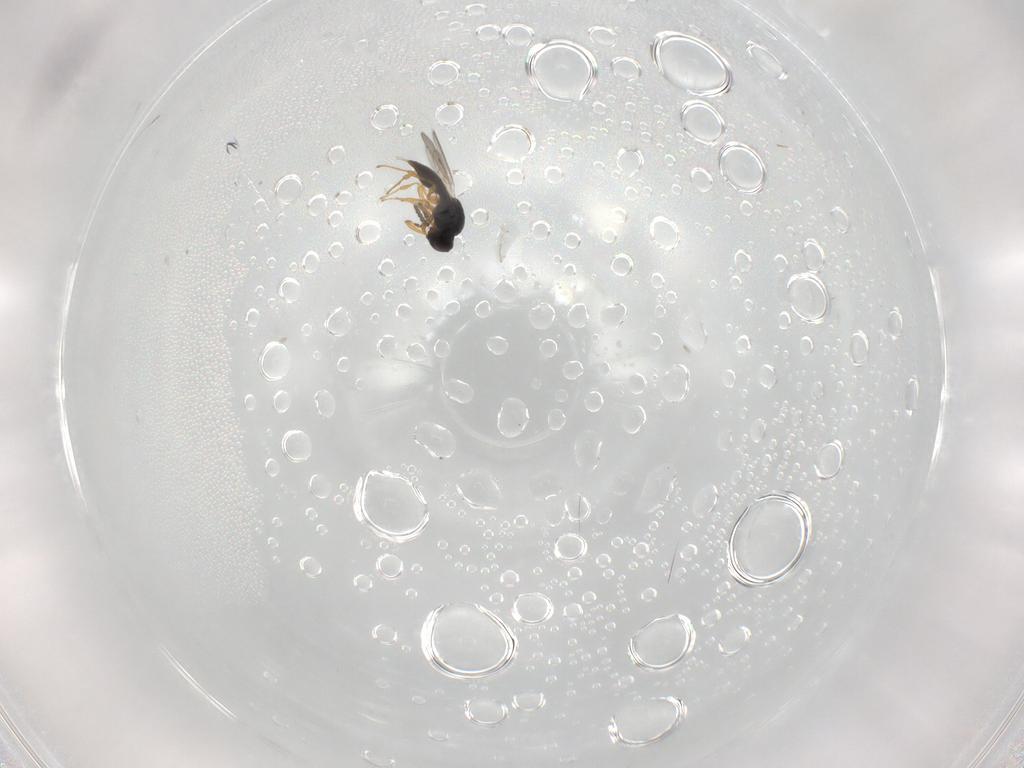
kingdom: Animalia
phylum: Arthropoda
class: Insecta
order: Hymenoptera
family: Platygastridae
